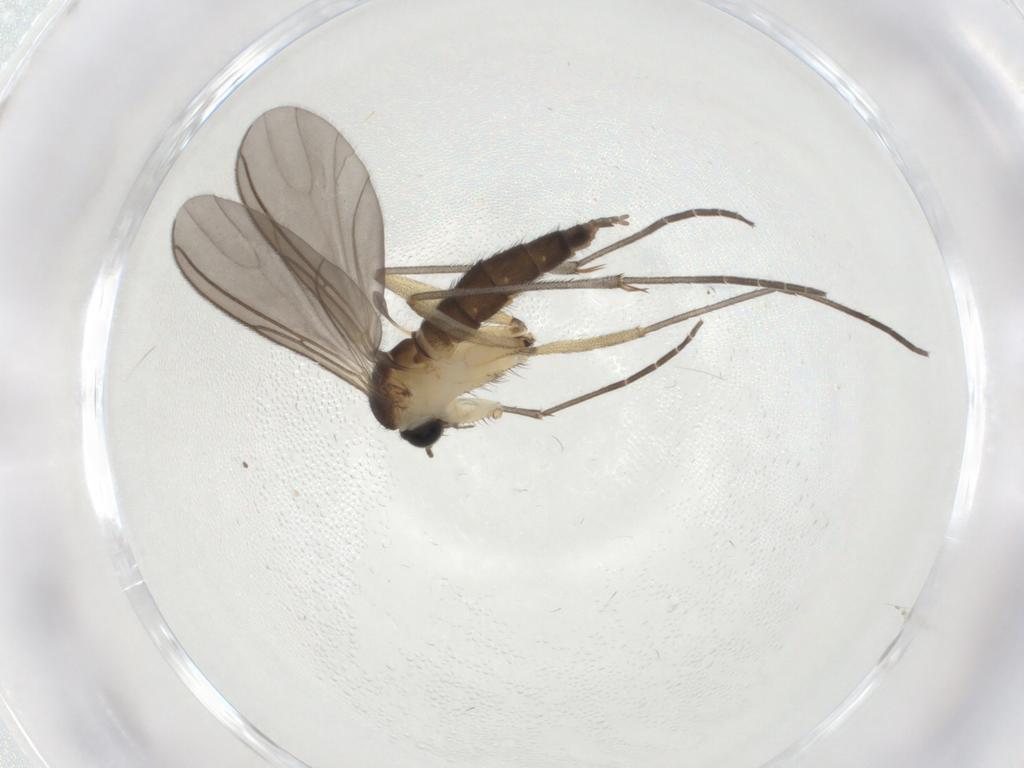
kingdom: Animalia
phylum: Arthropoda
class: Insecta
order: Diptera
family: Sciaridae
